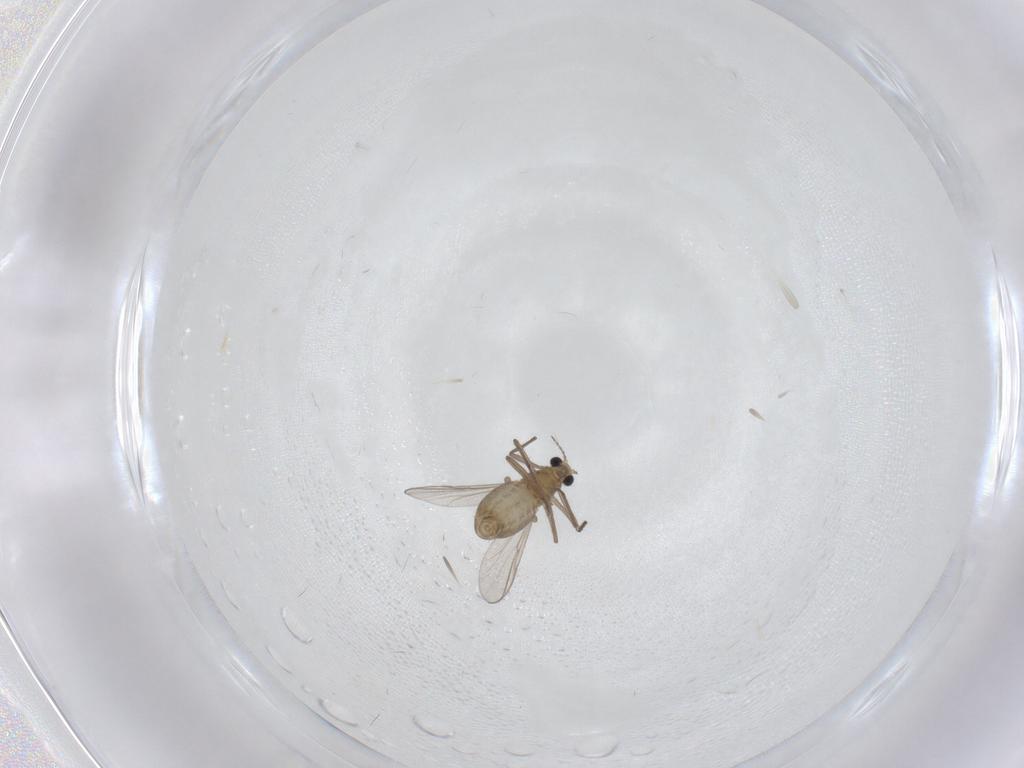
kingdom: Animalia
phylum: Arthropoda
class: Insecta
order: Diptera
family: Chironomidae
